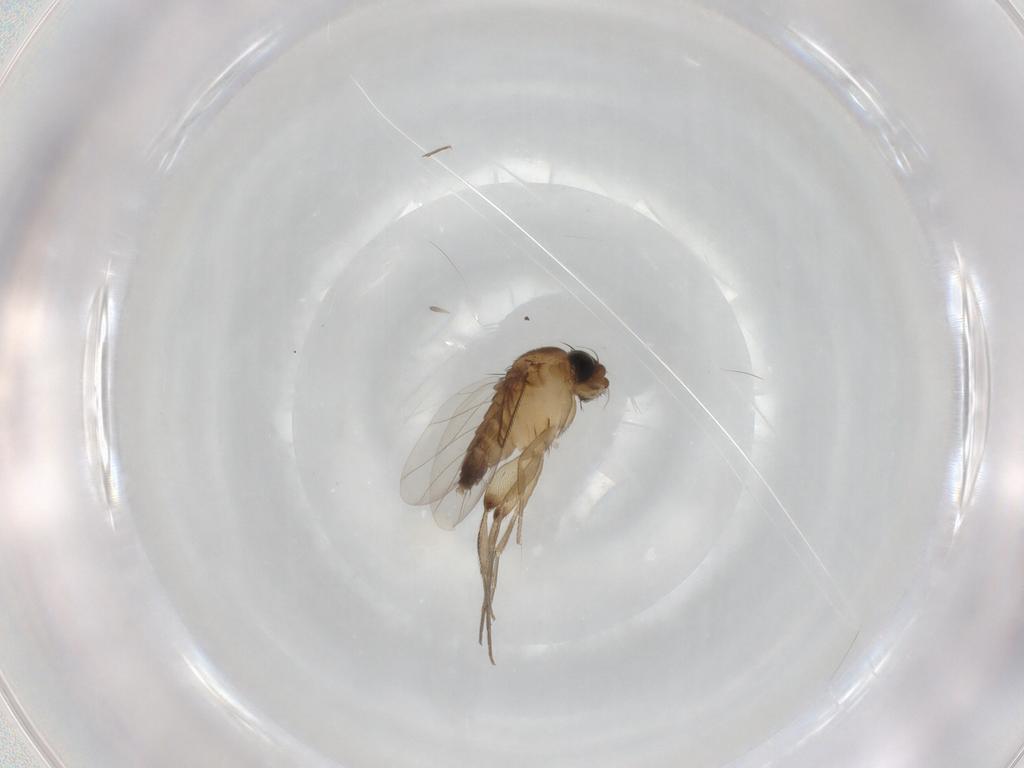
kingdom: Animalia
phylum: Arthropoda
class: Insecta
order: Diptera
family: Phoridae
